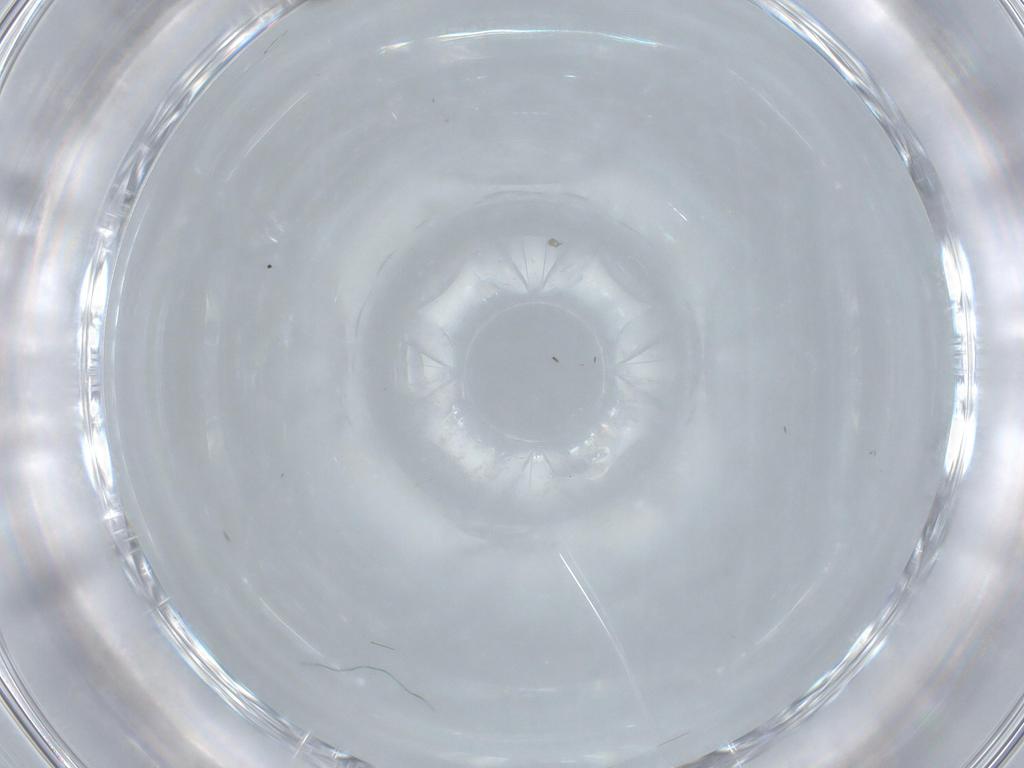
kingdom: Animalia
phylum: Arthropoda
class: Insecta
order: Diptera
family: Sciaridae
